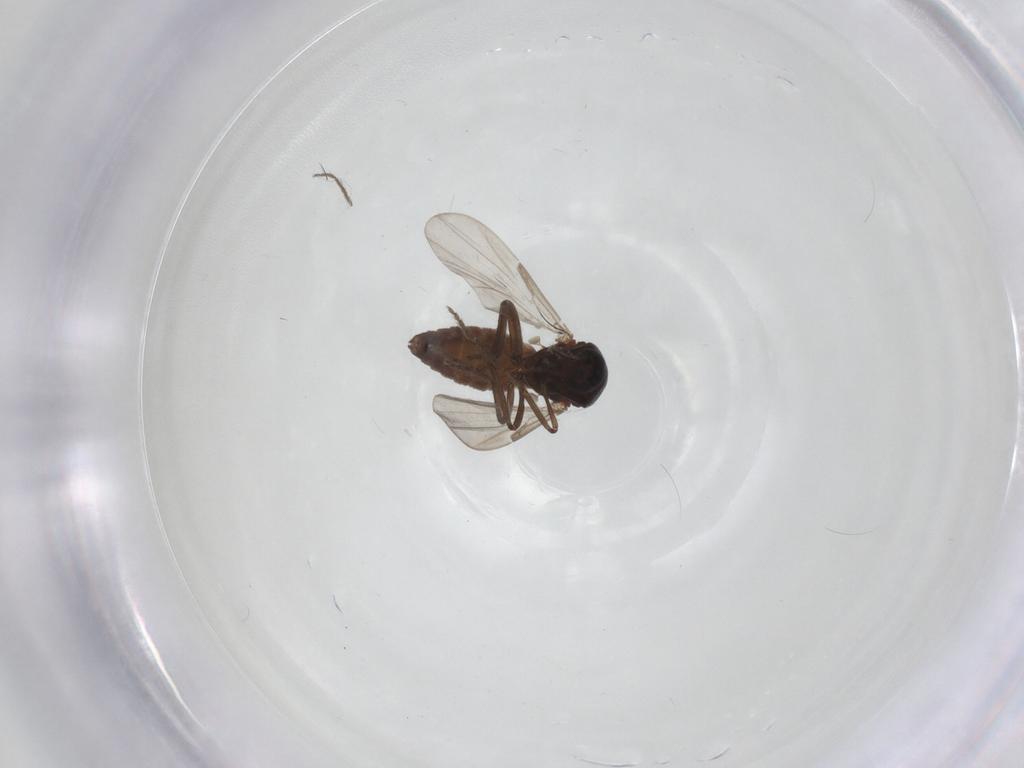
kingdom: Animalia
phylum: Arthropoda
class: Insecta
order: Diptera
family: Ceratopogonidae
